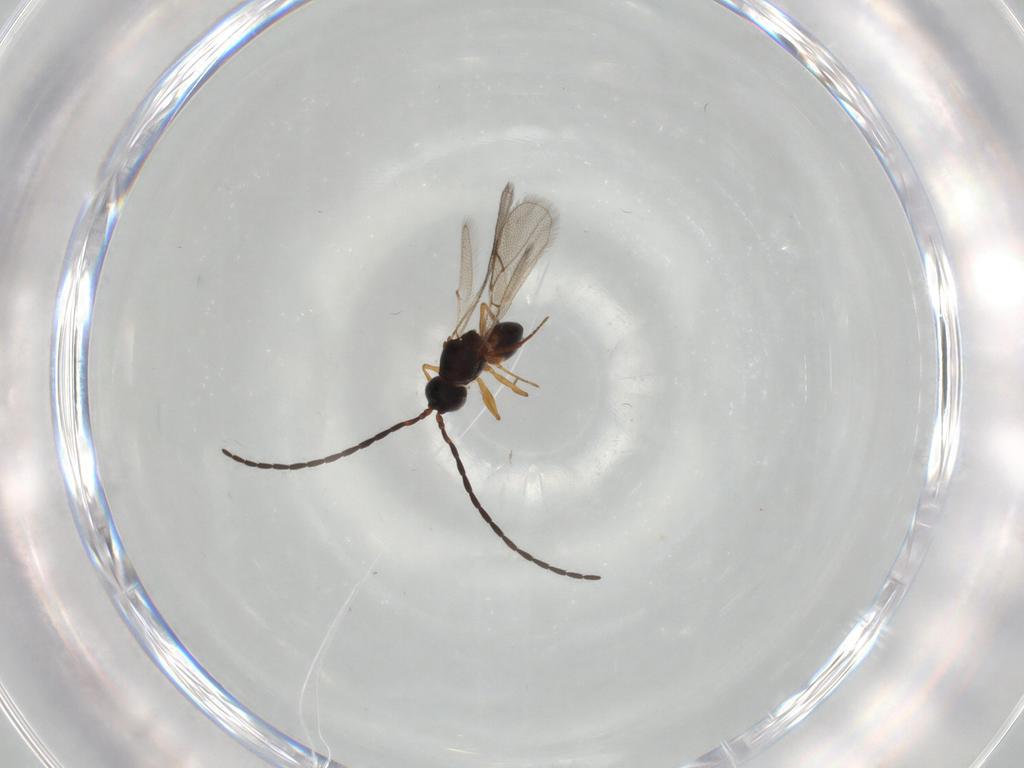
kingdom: Animalia
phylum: Arthropoda
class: Insecta
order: Hymenoptera
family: Figitidae
